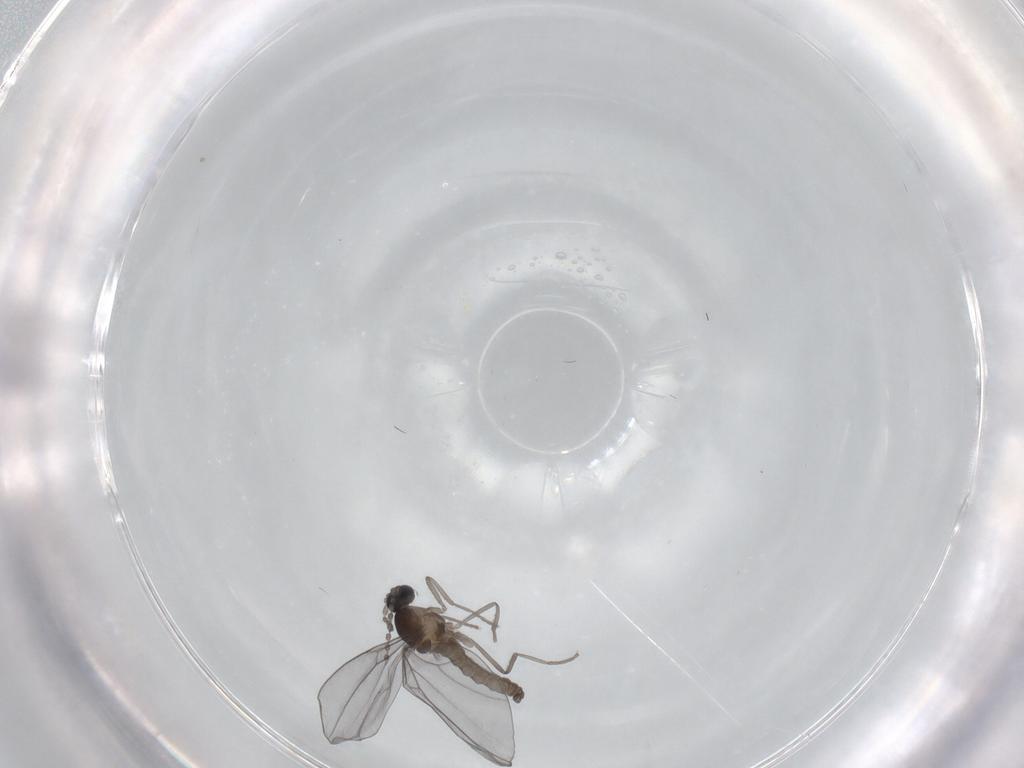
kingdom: Animalia
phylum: Arthropoda
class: Insecta
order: Diptera
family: Cecidomyiidae
